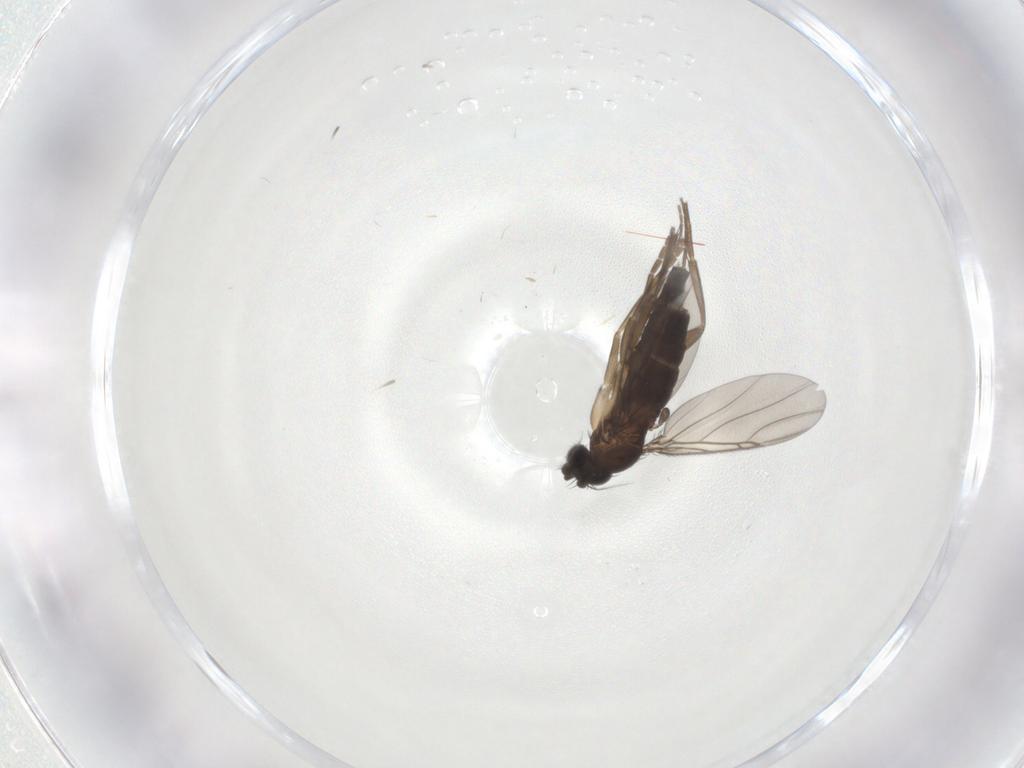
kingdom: Animalia
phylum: Arthropoda
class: Insecta
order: Diptera
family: Phoridae
